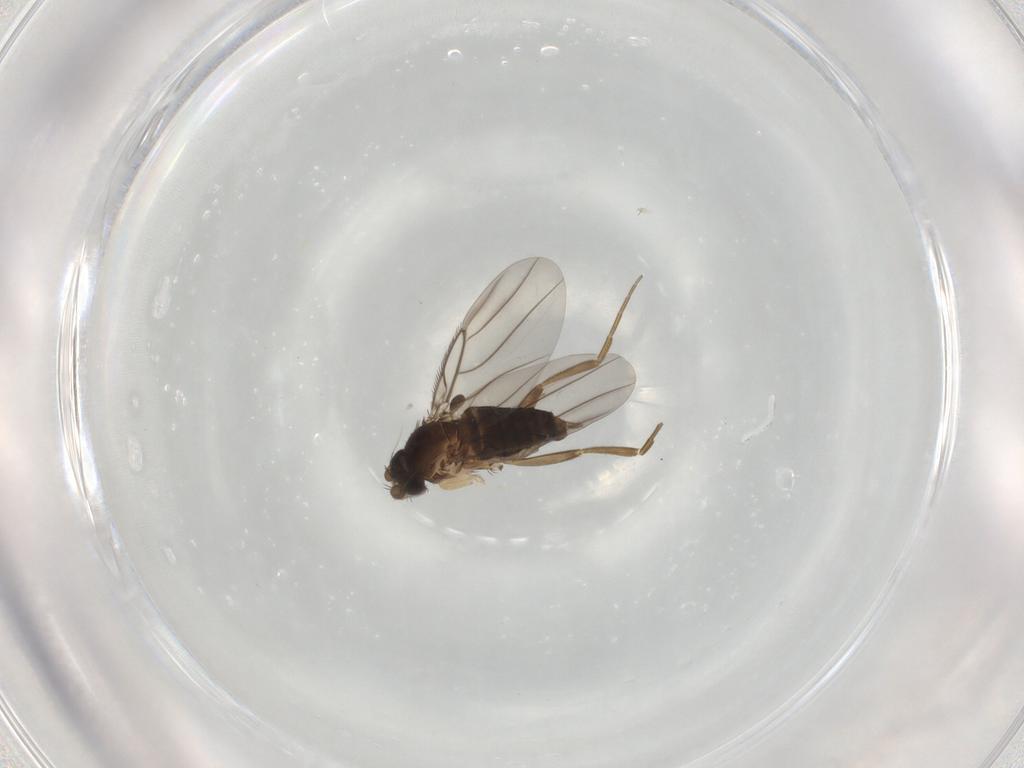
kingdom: Animalia
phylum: Arthropoda
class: Insecta
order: Diptera
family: Phoridae
